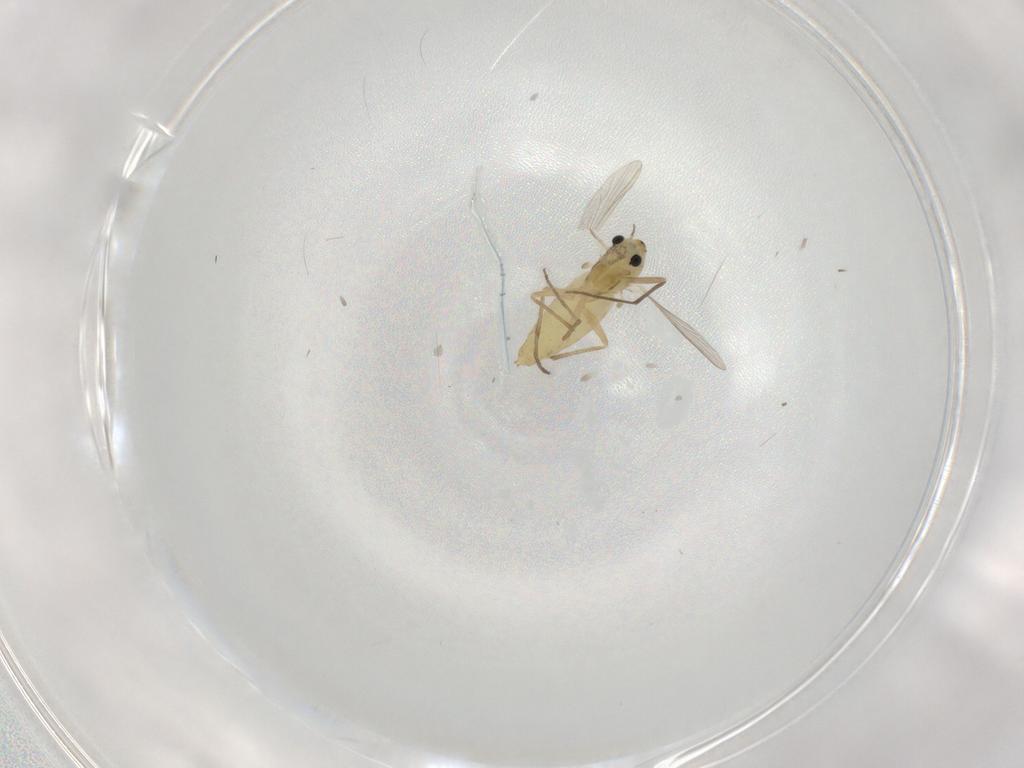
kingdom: Animalia
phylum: Arthropoda
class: Insecta
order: Diptera
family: Chironomidae
